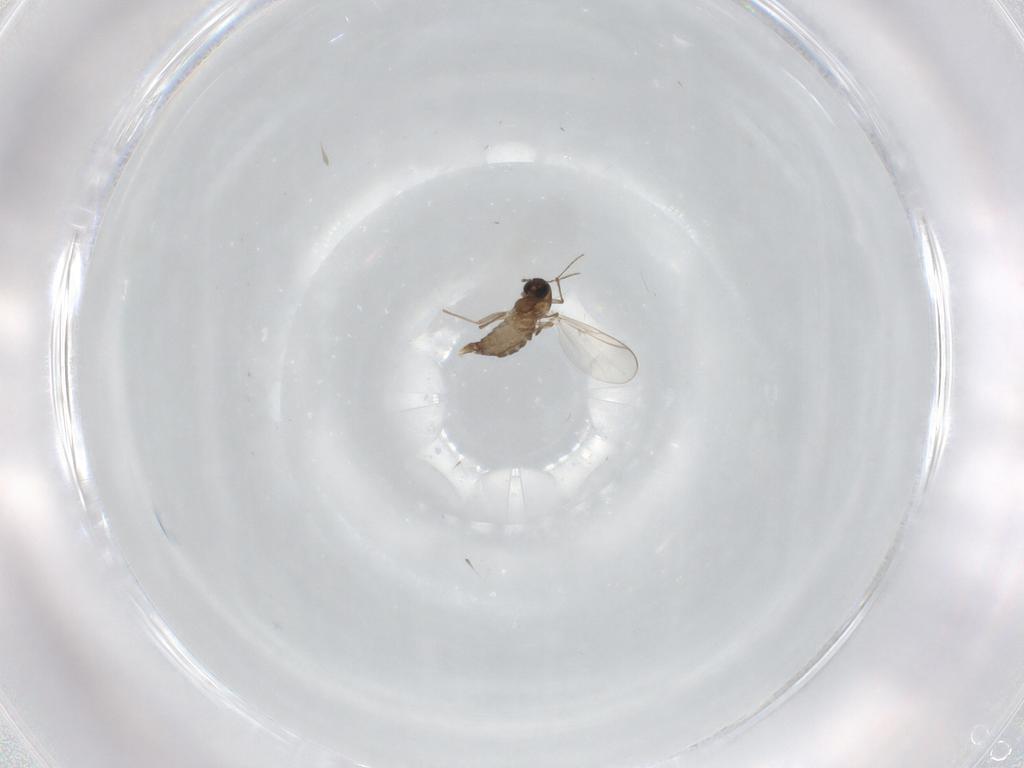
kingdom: Animalia
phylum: Arthropoda
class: Insecta
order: Diptera
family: Chironomidae
